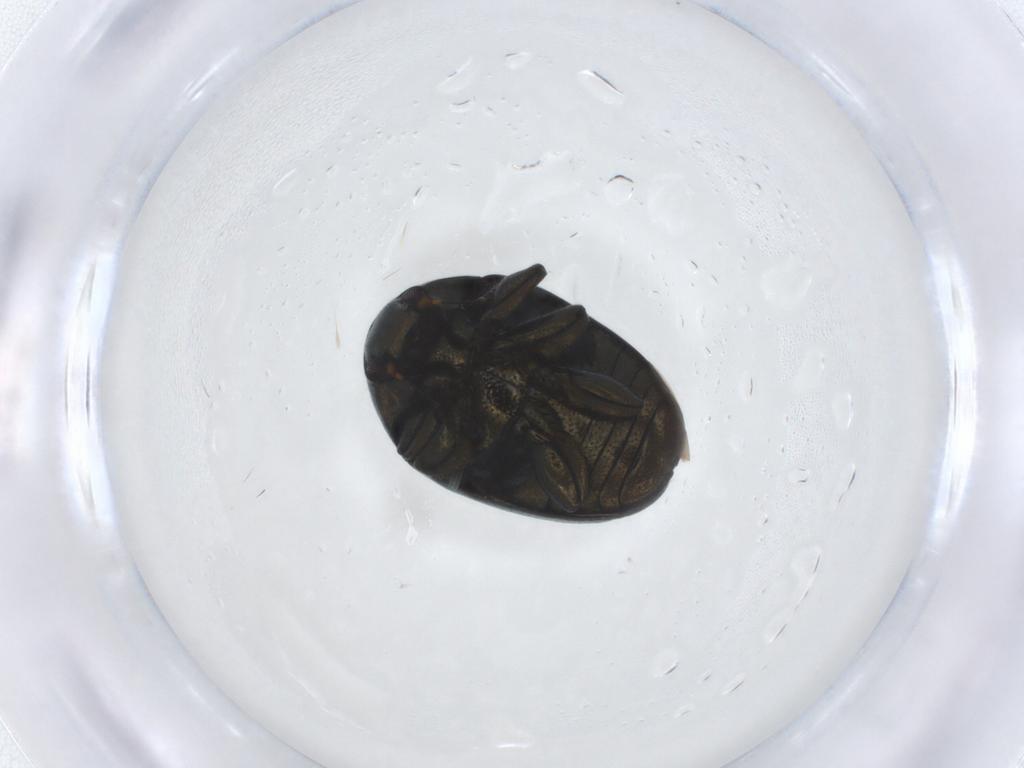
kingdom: Animalia
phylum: Arthropoda
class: Insecta
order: Coleoptera
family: Chrysomelidae
